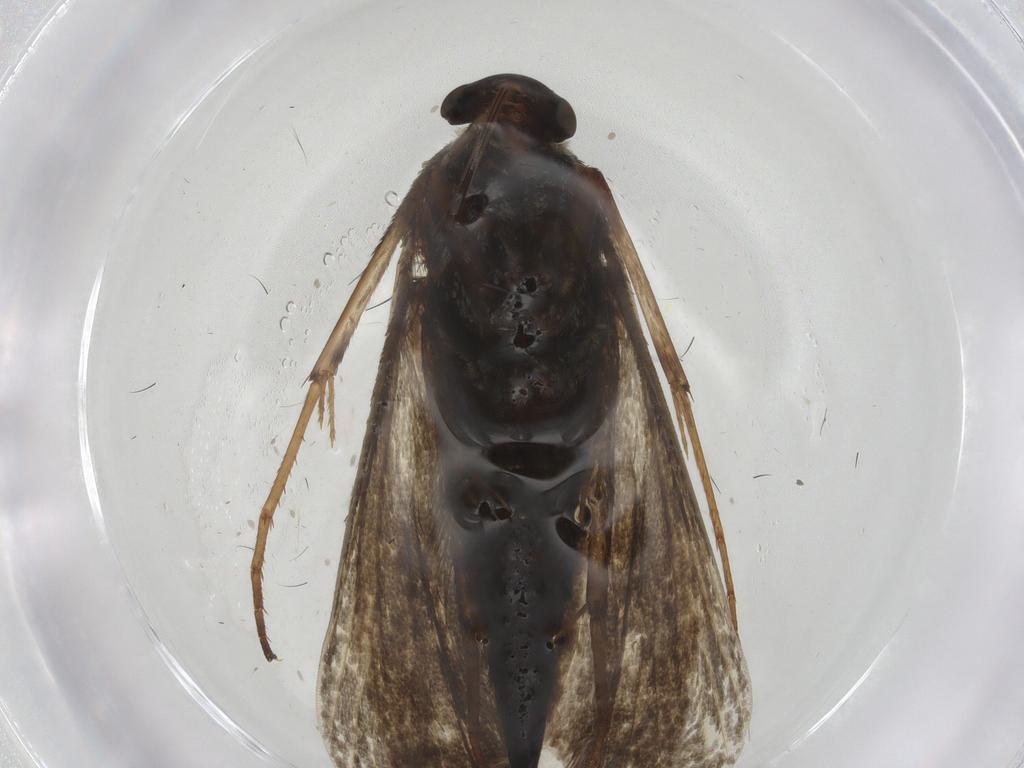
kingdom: Animalia
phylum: Arthropoda
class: Insecta
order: Lepidoptera
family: Adelidae
